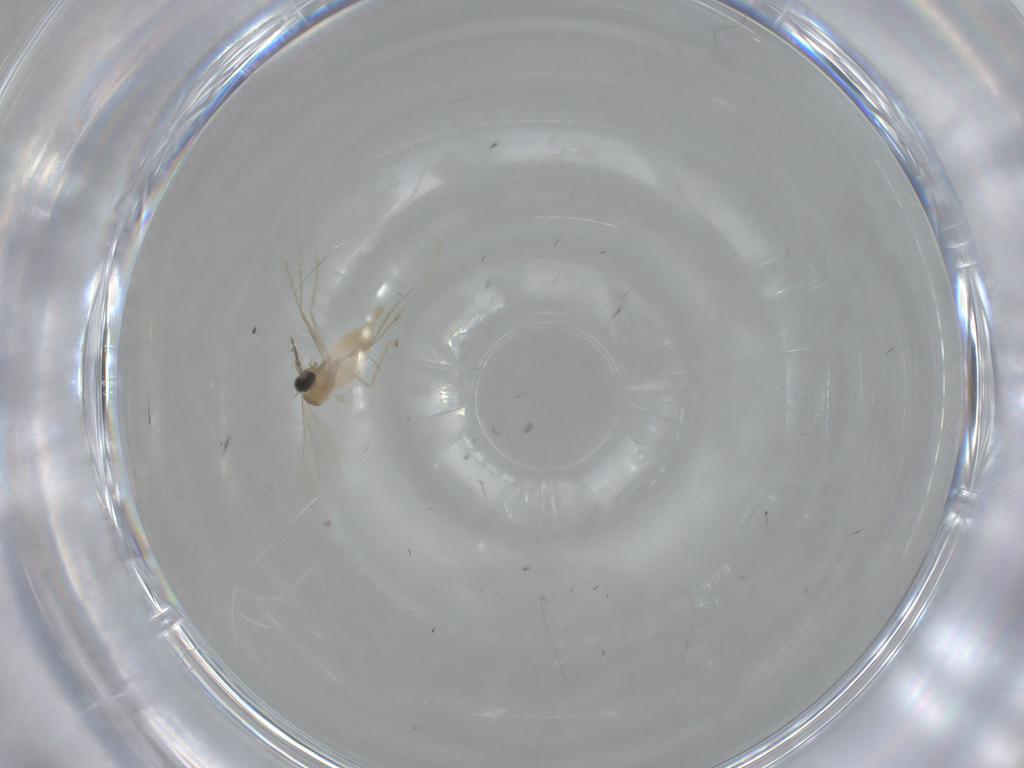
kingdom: Animalia
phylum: Arthropoda
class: Insecta
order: Diptera
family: Cecidomyiidae
